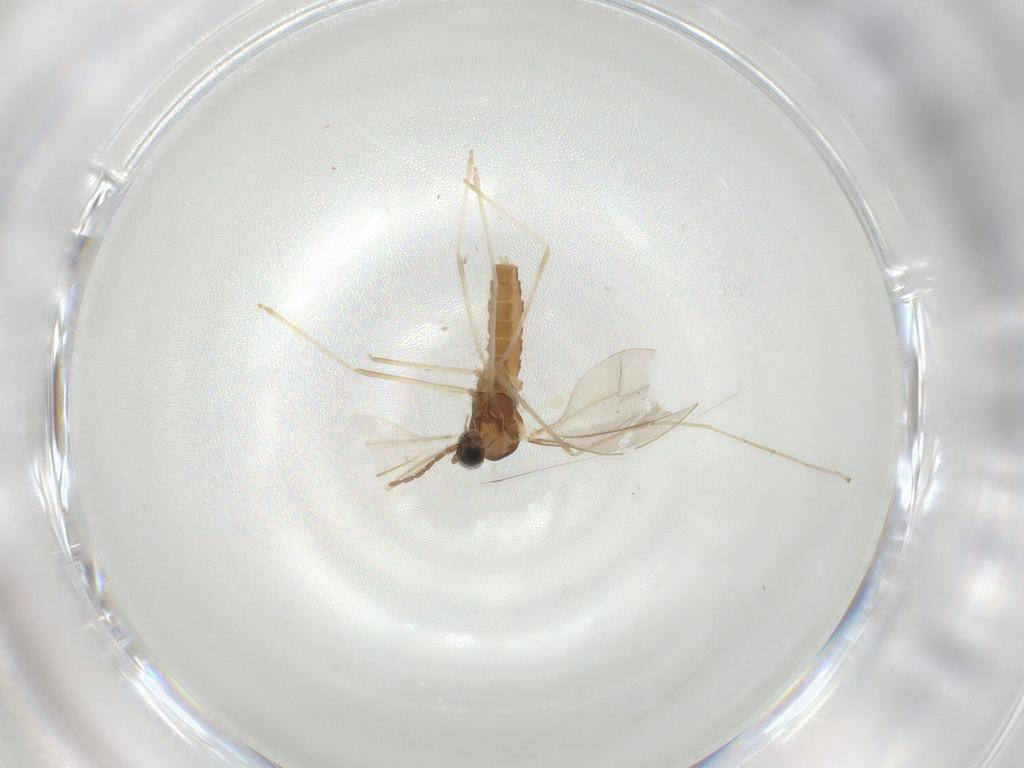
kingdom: Animalia
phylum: Arthropoda
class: Insecta
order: Diptera
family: Cecidomyiidae
